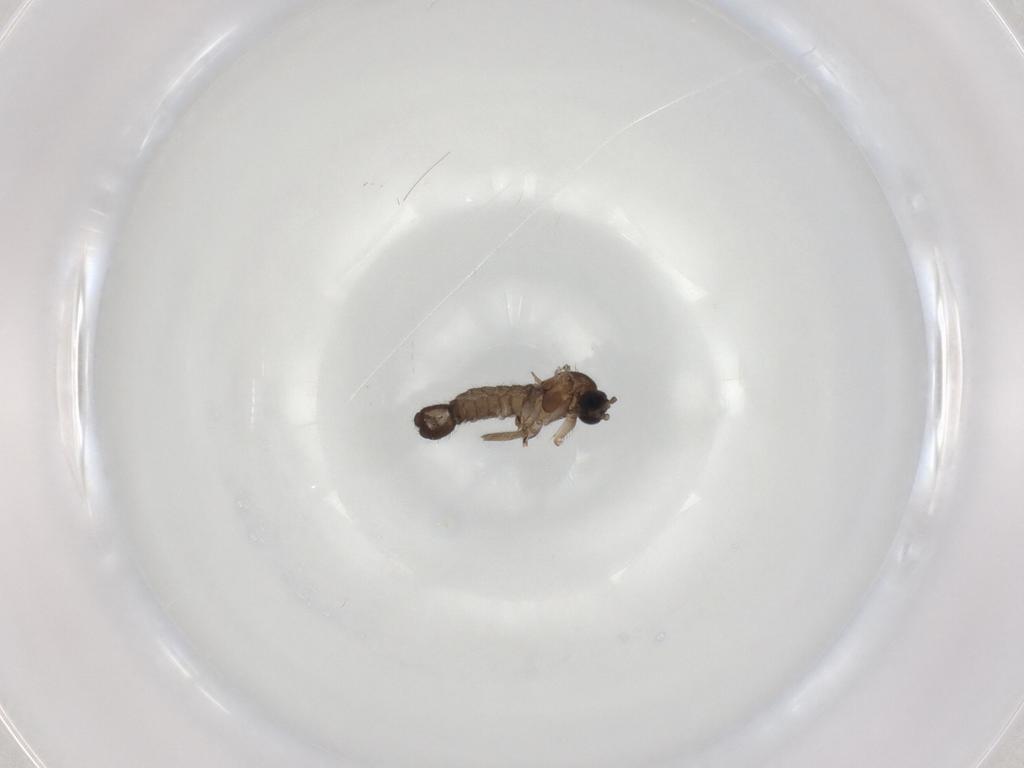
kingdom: Animalia
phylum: Arthropoda
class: Insecta
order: Diptera
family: Sciaridae
